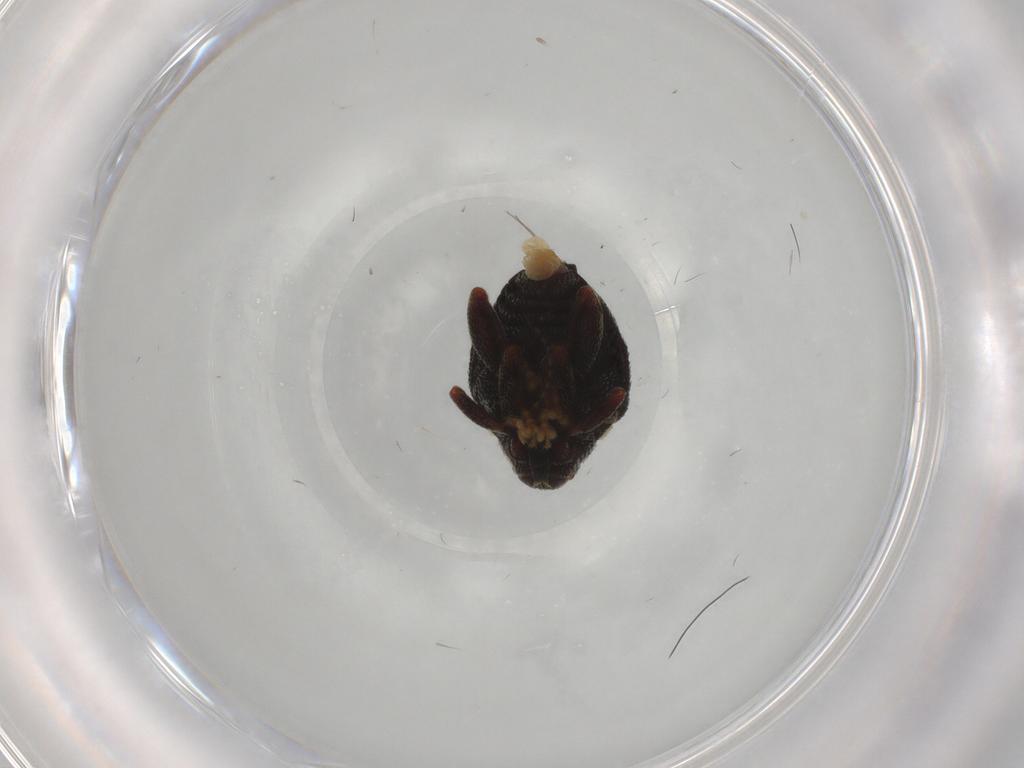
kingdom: Animalia
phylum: Arthropoda
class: Insecta
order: Coleoptera
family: Curculionidae
